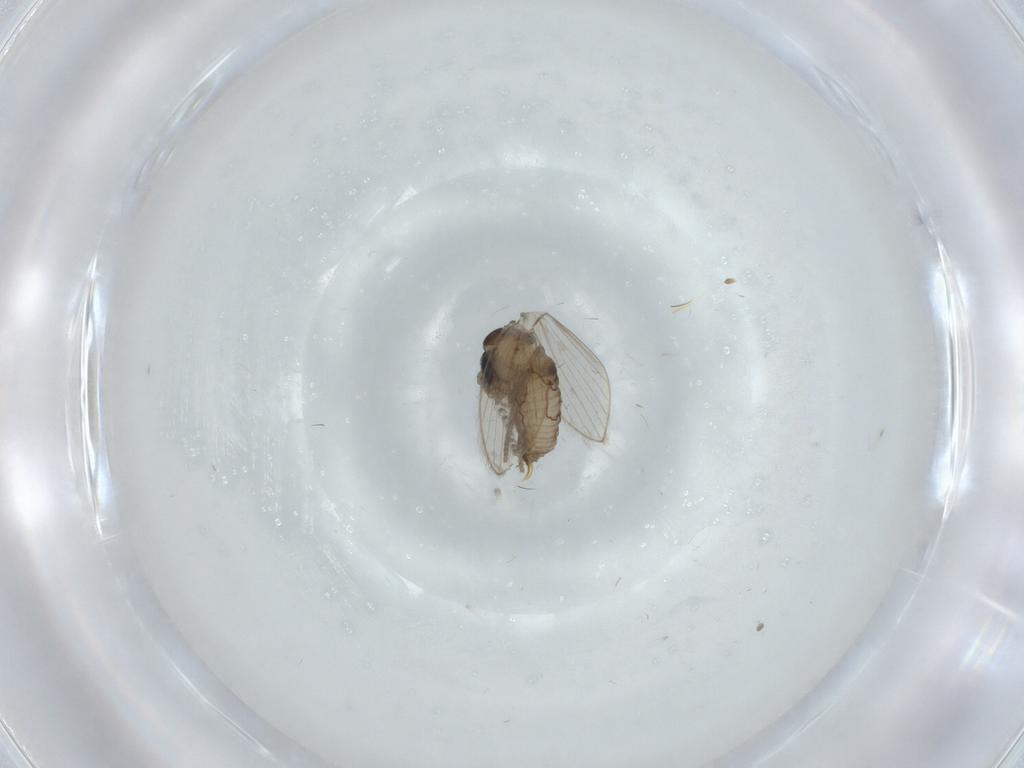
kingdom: Animalia
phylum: Arthropoda
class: Insecta
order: Diptera
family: Psychodidae
